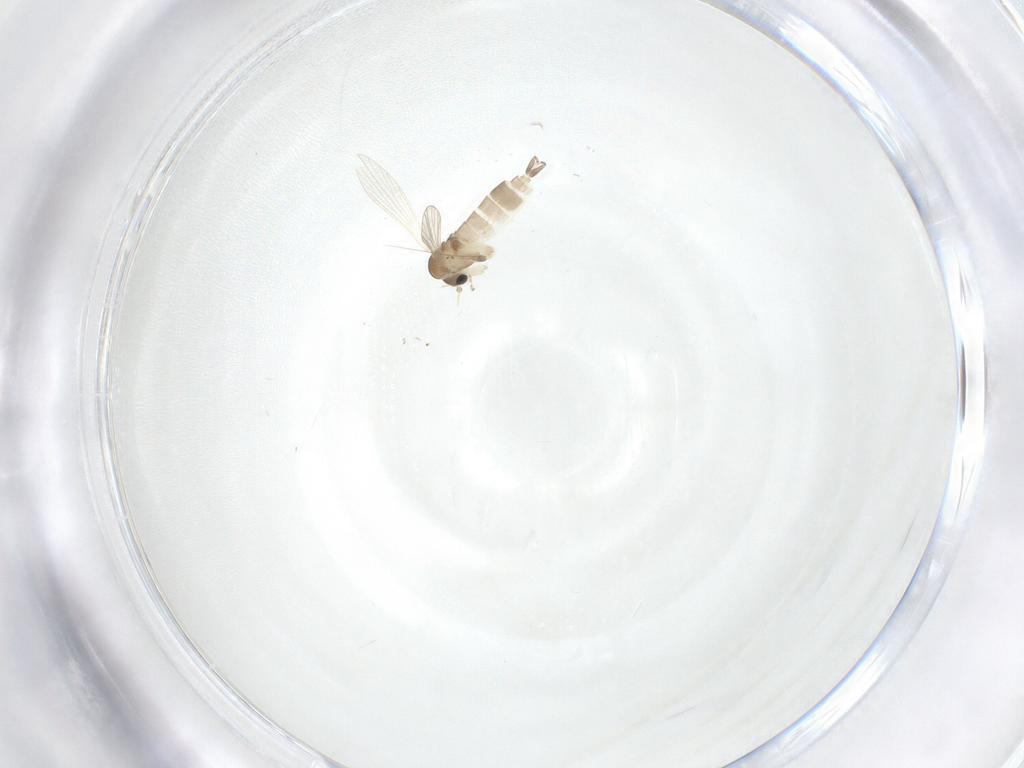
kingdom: Animalia
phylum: Arthropoda
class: Insecta
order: Diptera
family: Psychodidae
